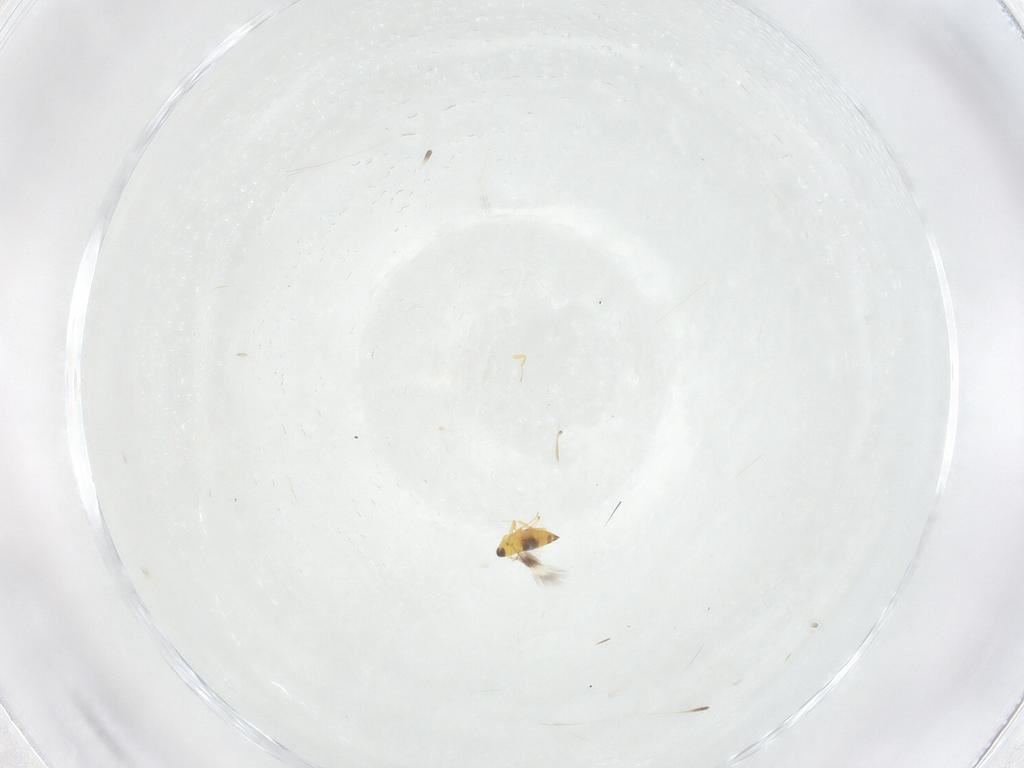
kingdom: Animalia
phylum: Arthropoda
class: Insecta
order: Hymenoptera
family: Signiphoridae
